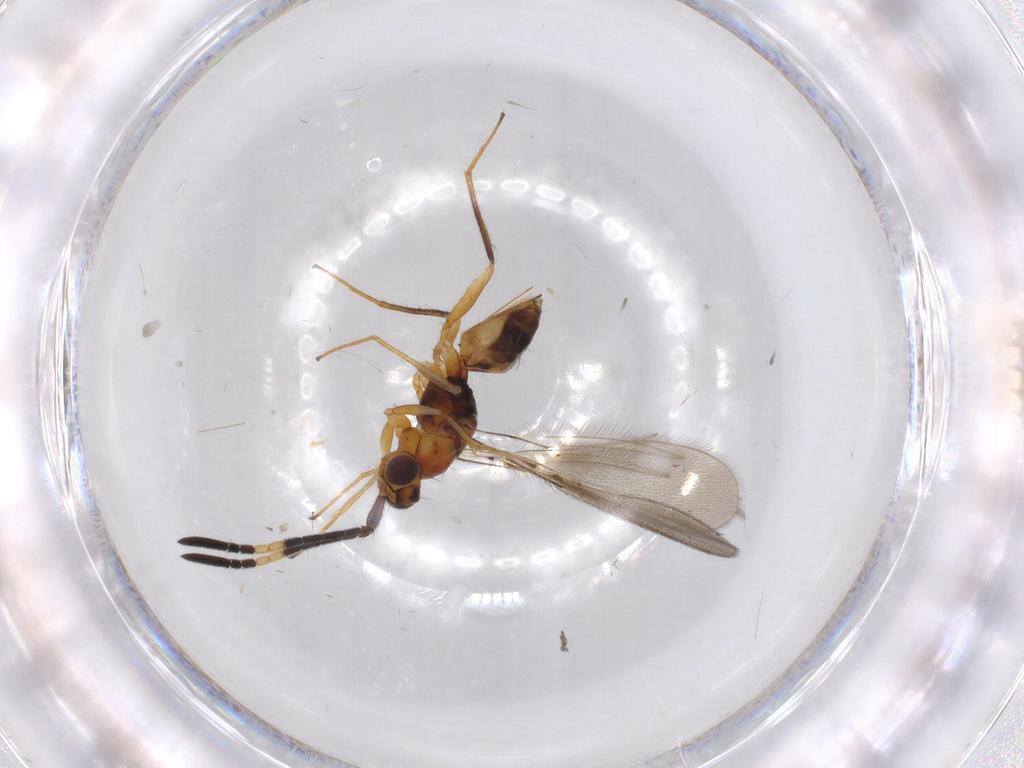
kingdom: Animalia
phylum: Arthropoda
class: Insecta
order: Hymenoptera
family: Mymaridae
